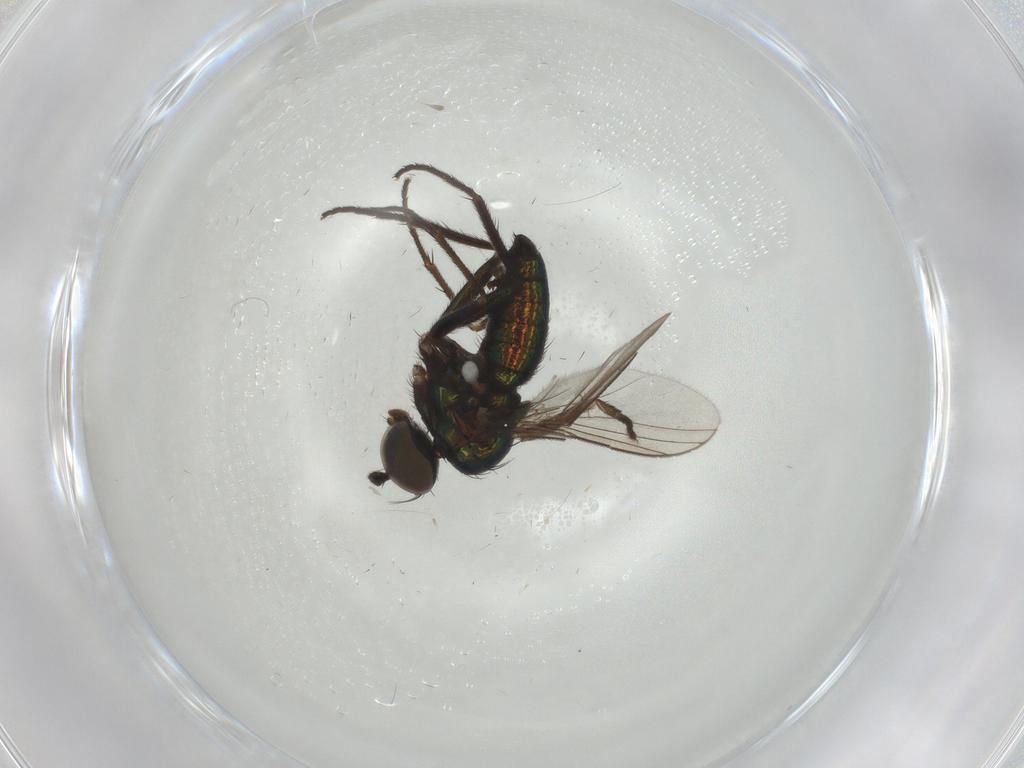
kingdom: Animalia
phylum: Arthropoda
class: Insecta
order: Diptera
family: Dolichopodidae
